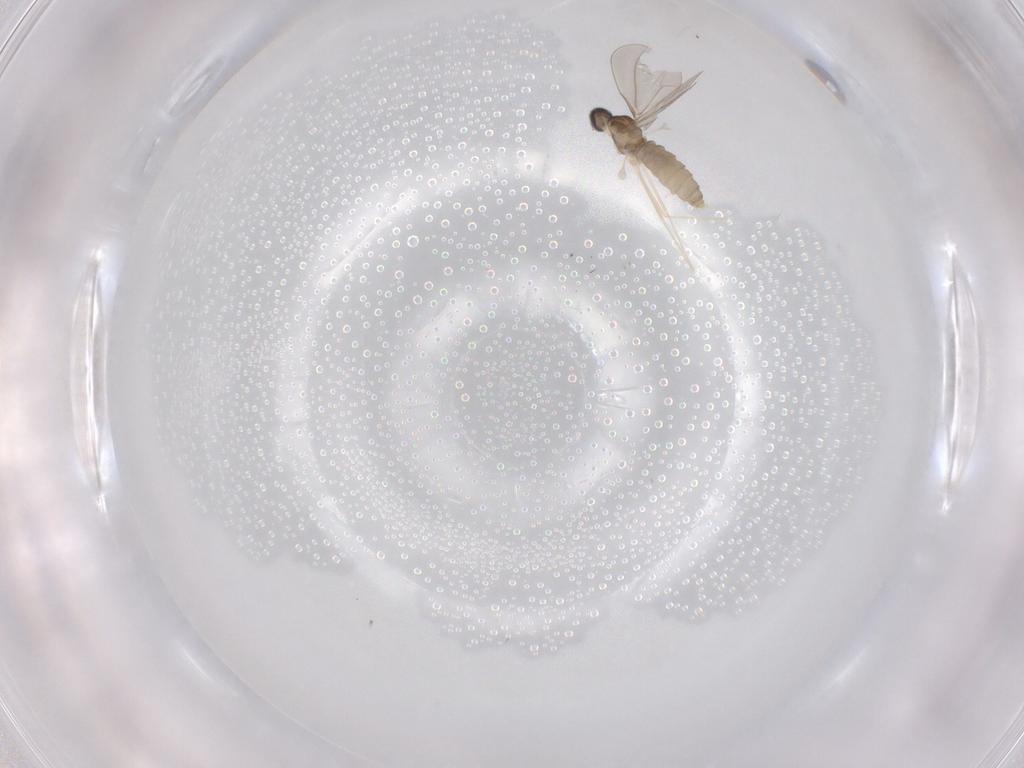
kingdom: Animalia
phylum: Arthropoda
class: Insecta
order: Diptera
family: Cecidomyiidae
